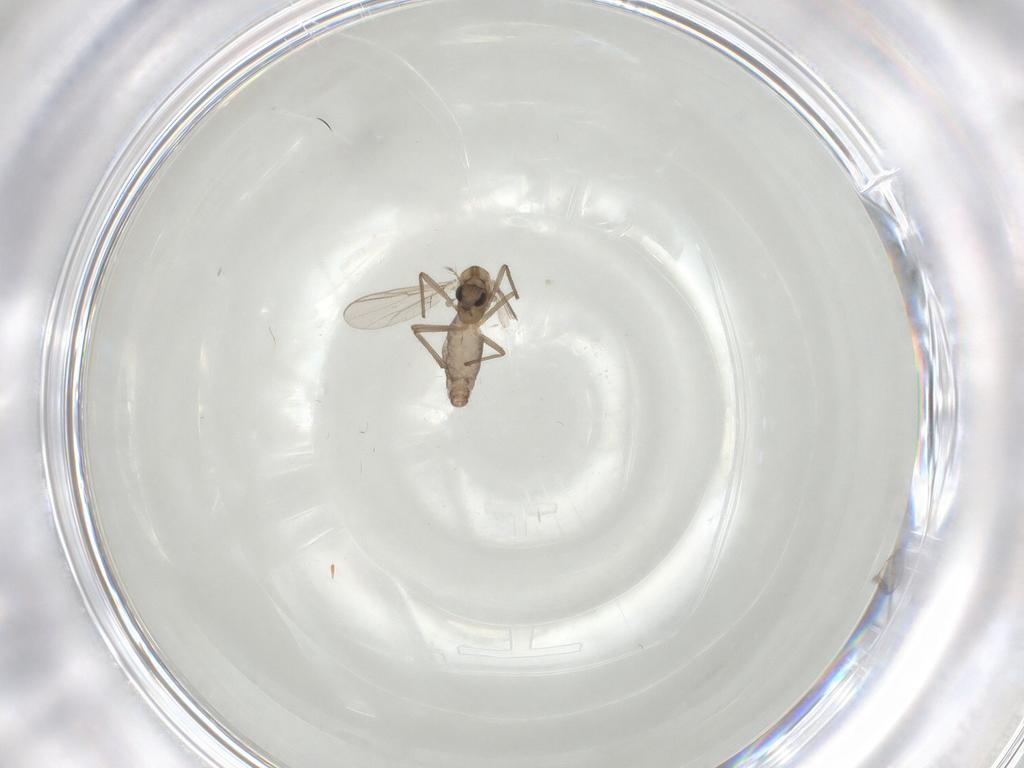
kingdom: Animalia
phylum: Arthropoda
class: Insecta
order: Diptera
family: Chironomidae
